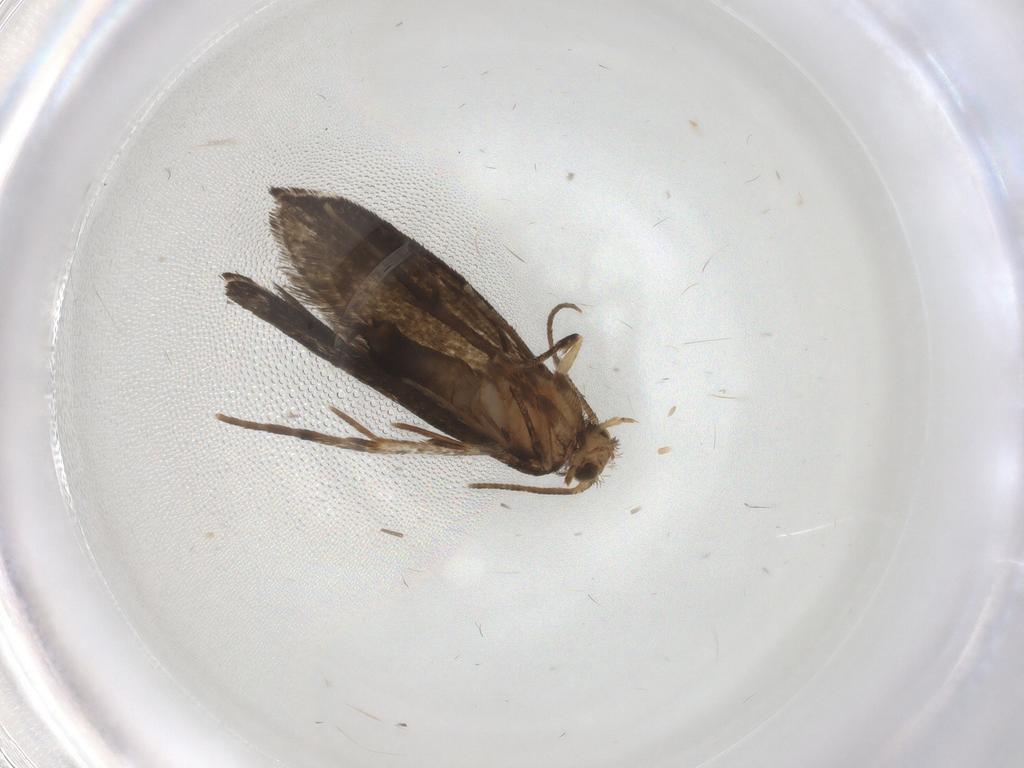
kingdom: Animalia
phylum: Arthropoda
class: Insecta
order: Lepidoptera
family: Tineidae
